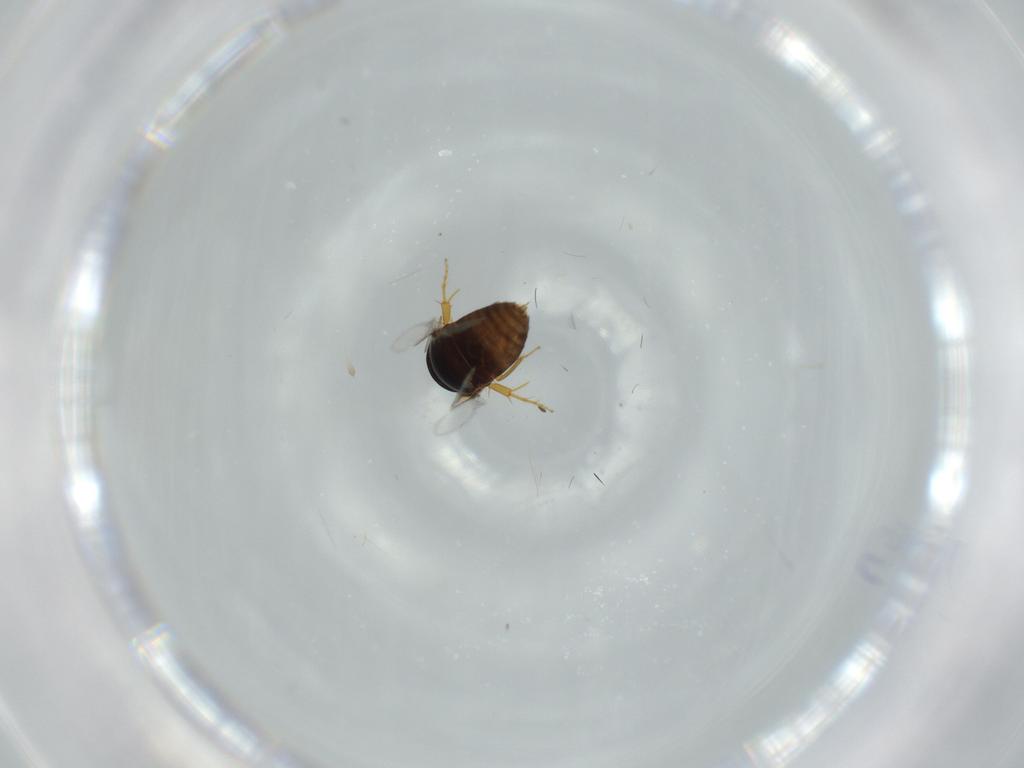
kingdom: Animalia
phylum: Arthropoda
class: Insecta
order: Hymenoptera
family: Signiphoridae
